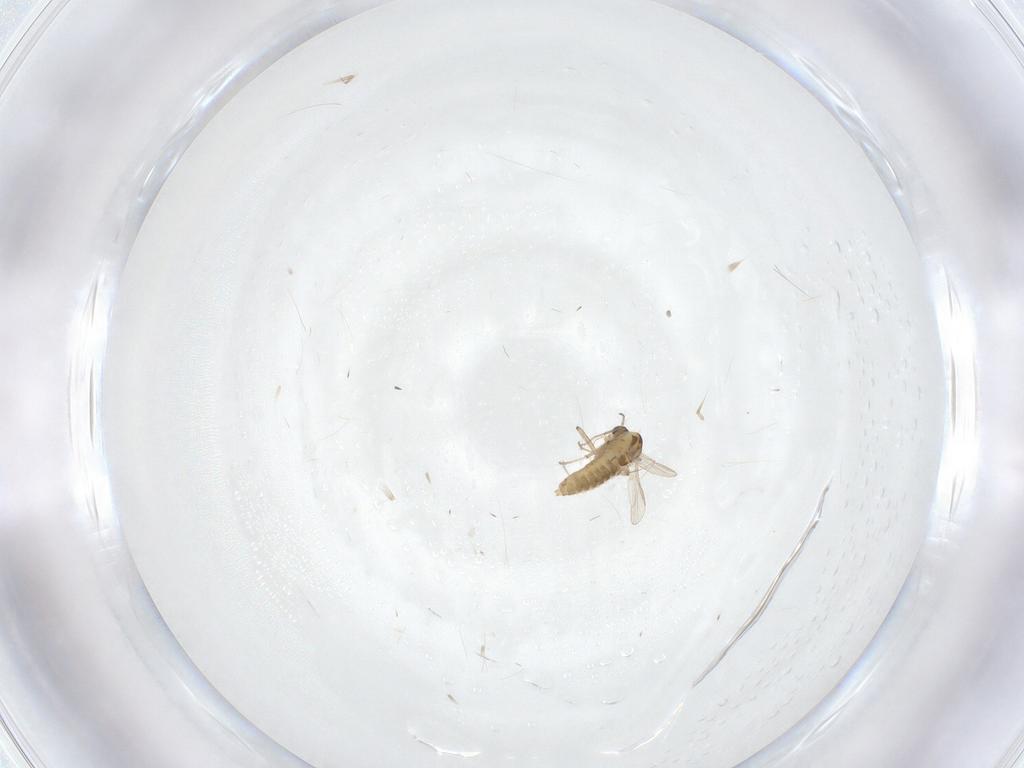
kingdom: Animalia
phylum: Arthropoda
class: Insecta
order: Diptera
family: Chironomidae
